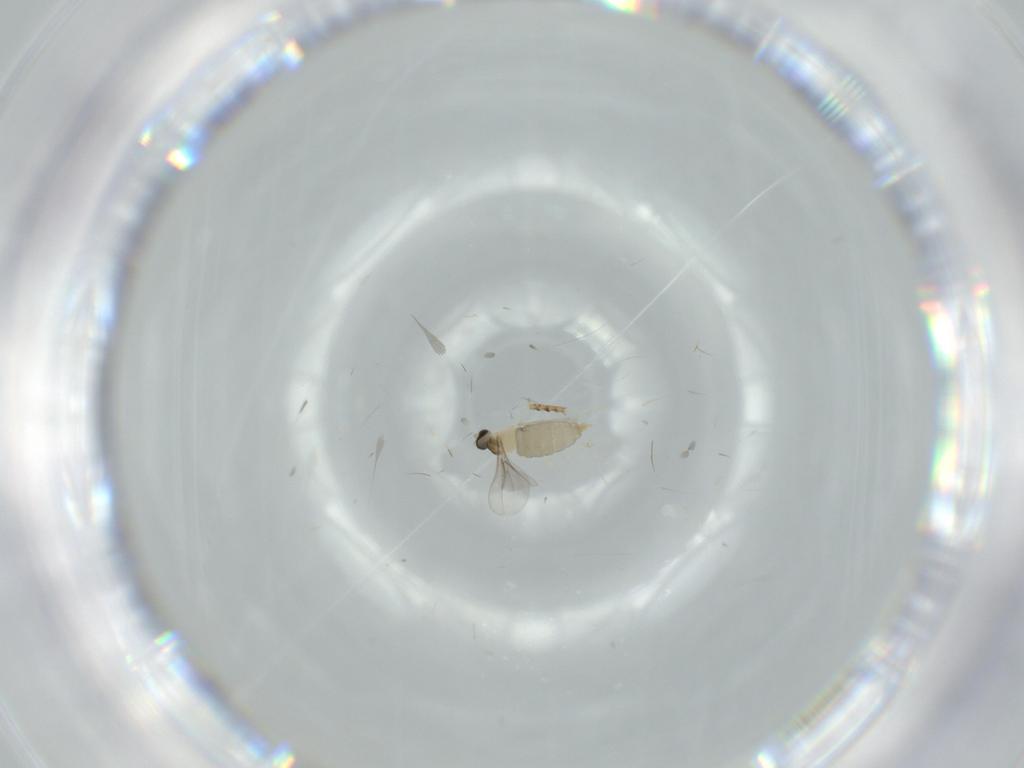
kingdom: Animalia
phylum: Arthropoda
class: Insecta
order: Diptera
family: Tabanidae
